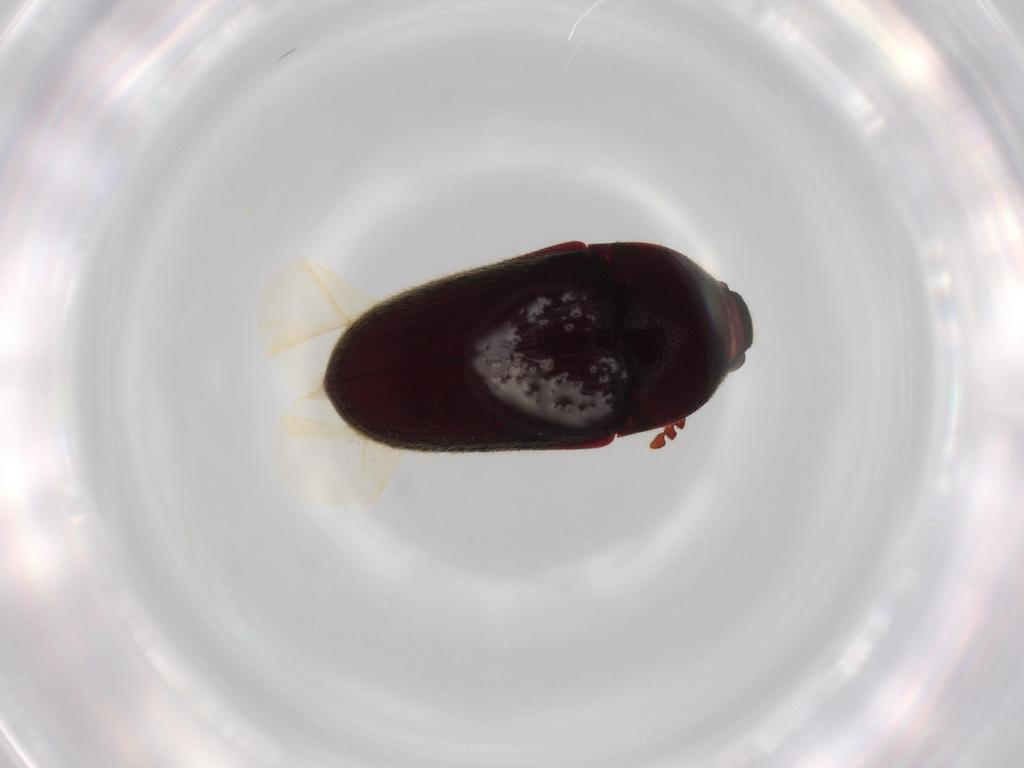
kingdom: Animalia
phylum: Arthropoda
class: Insecta
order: Coleoptera
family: Throscidae
